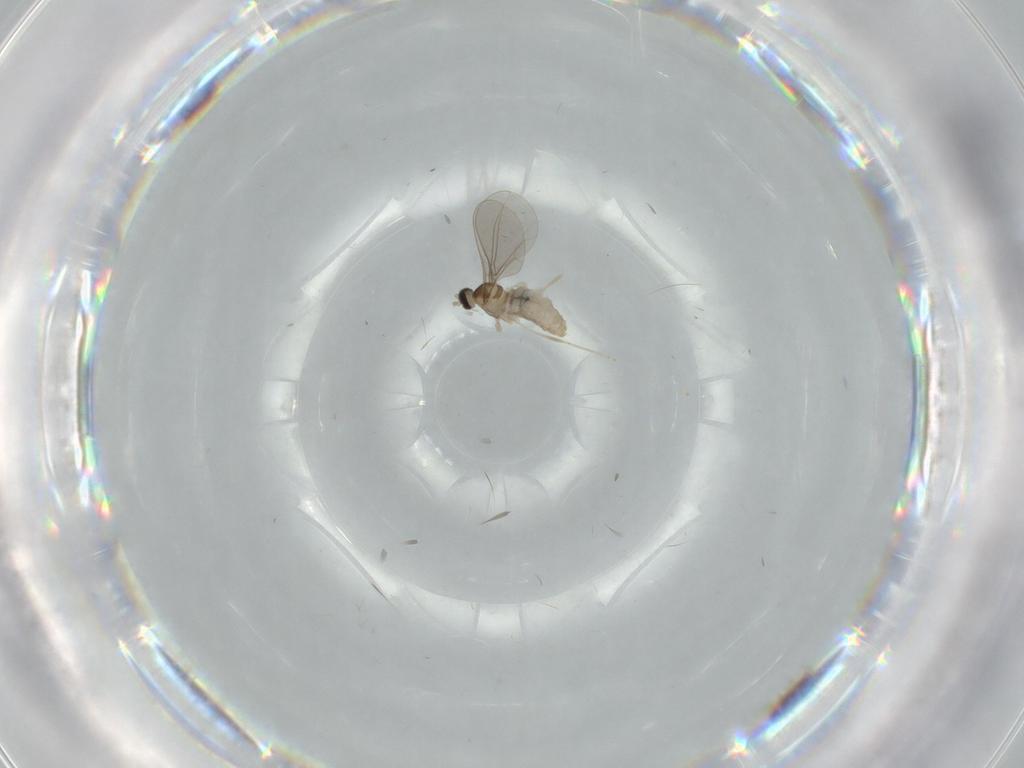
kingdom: Animalia
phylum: Arthropoda
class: Insecta
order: Diptera
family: Cecidomyiidae
